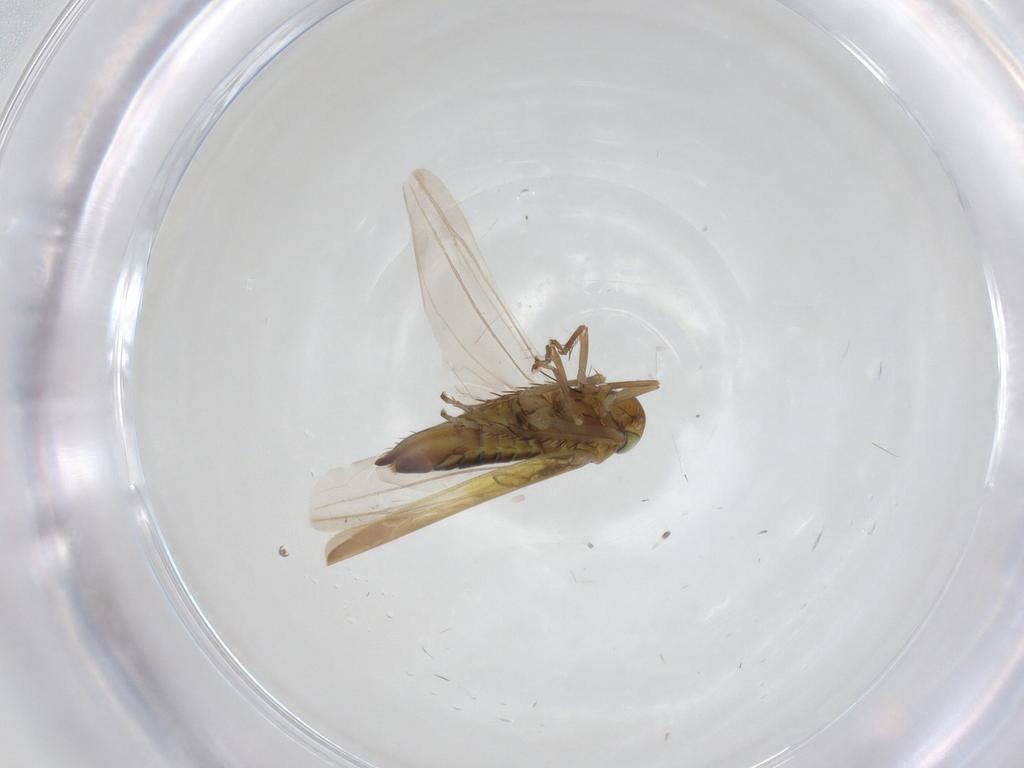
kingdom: Animalia
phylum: Arthropoda
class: Insecta
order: Hemiptera
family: Cicadellidae
